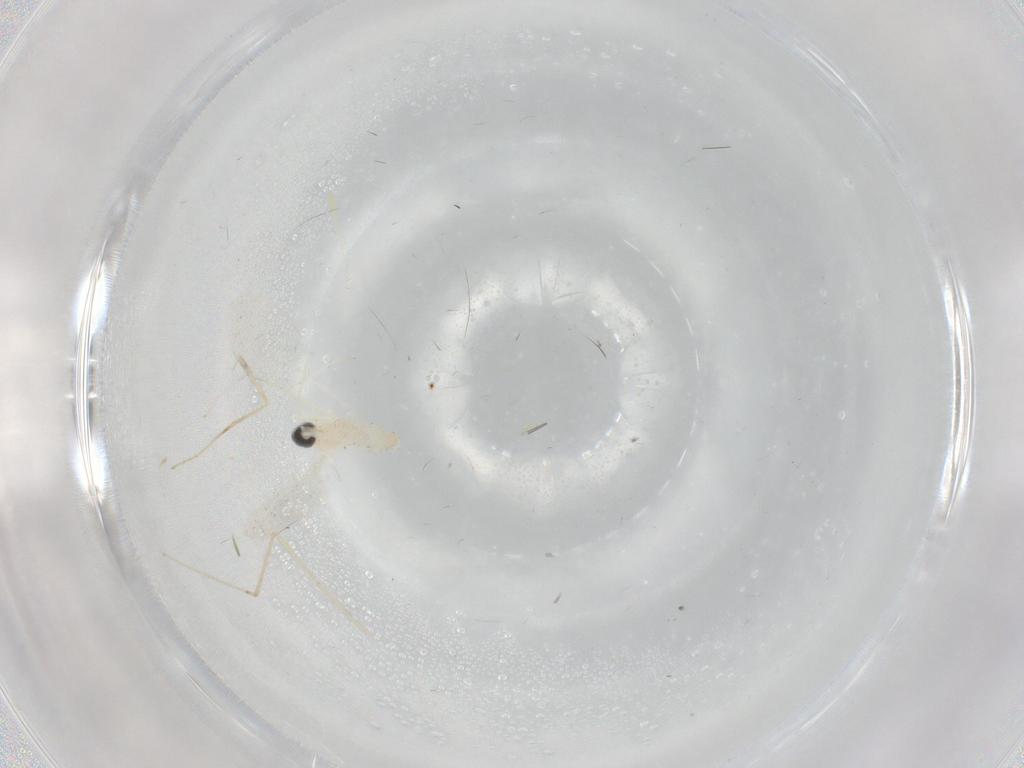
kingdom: Animalia
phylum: Arthropoda
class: Insecta
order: Diptera
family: Cecidomyiidae
